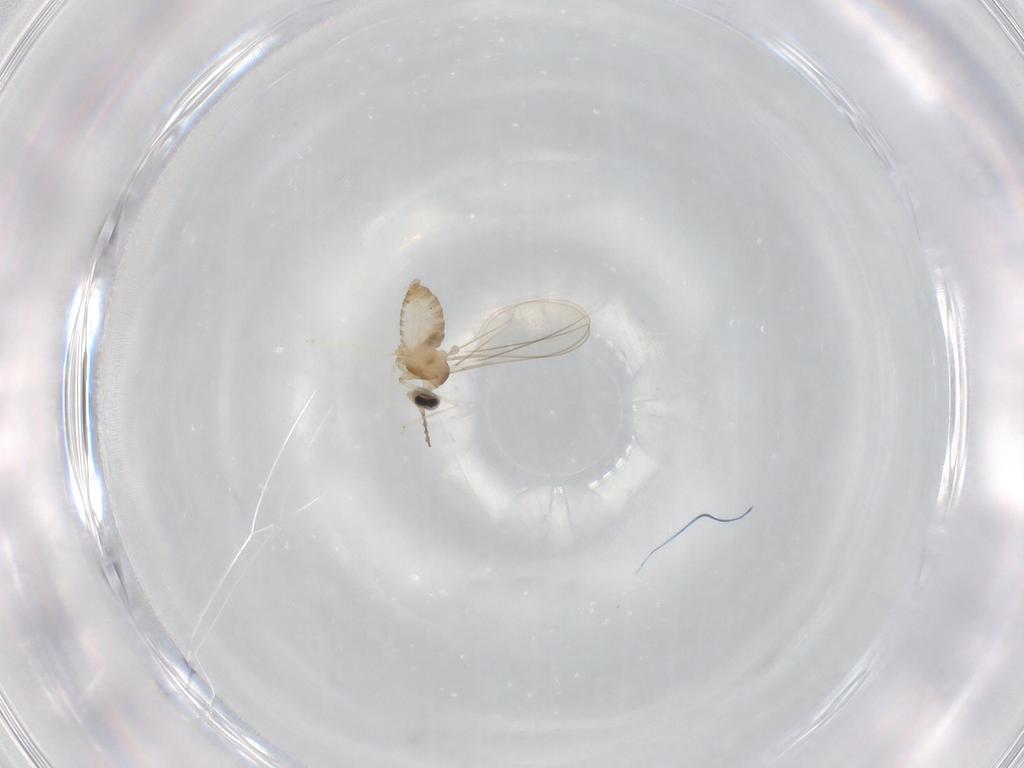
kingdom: Animalia
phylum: Arthropoda
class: Insecta
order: Diptera
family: Cecidomyiidae
